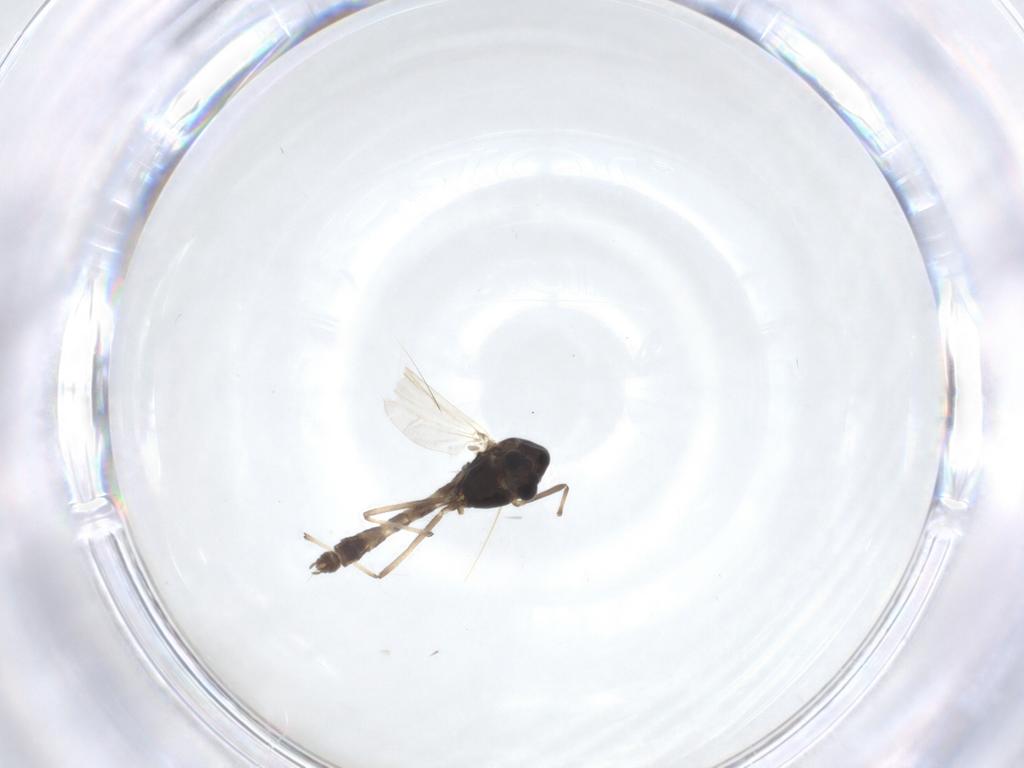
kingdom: Animalia
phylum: Arthropoda
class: Insecta
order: Diptera
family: Chironomidae
